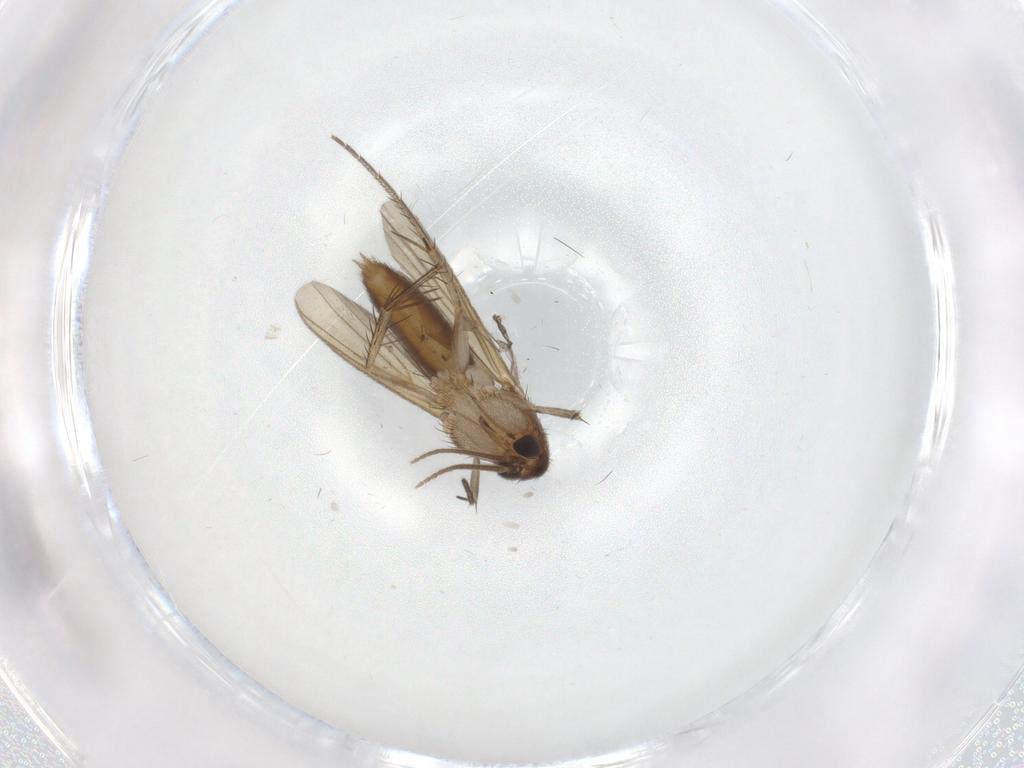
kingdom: Animalia
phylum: Arthropoda
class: Insecta
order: Diptera
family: Mycetophilidae
